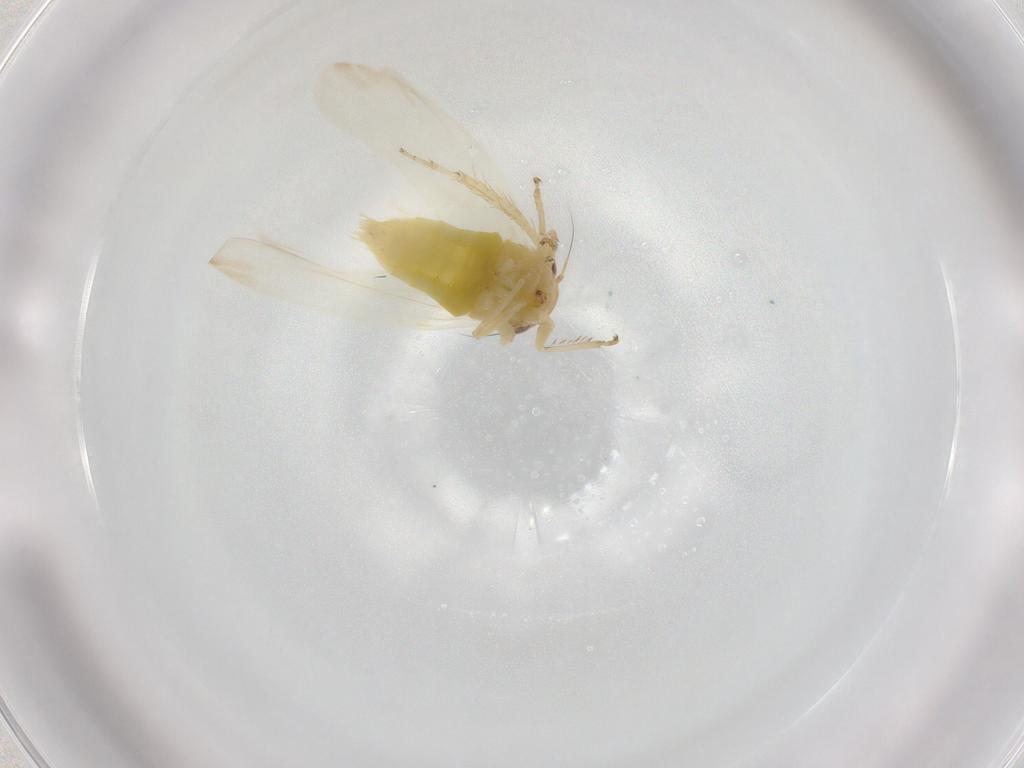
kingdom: Animalia
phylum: Arthropoda
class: Insecta
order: Hemiptera
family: Cicadellidae
